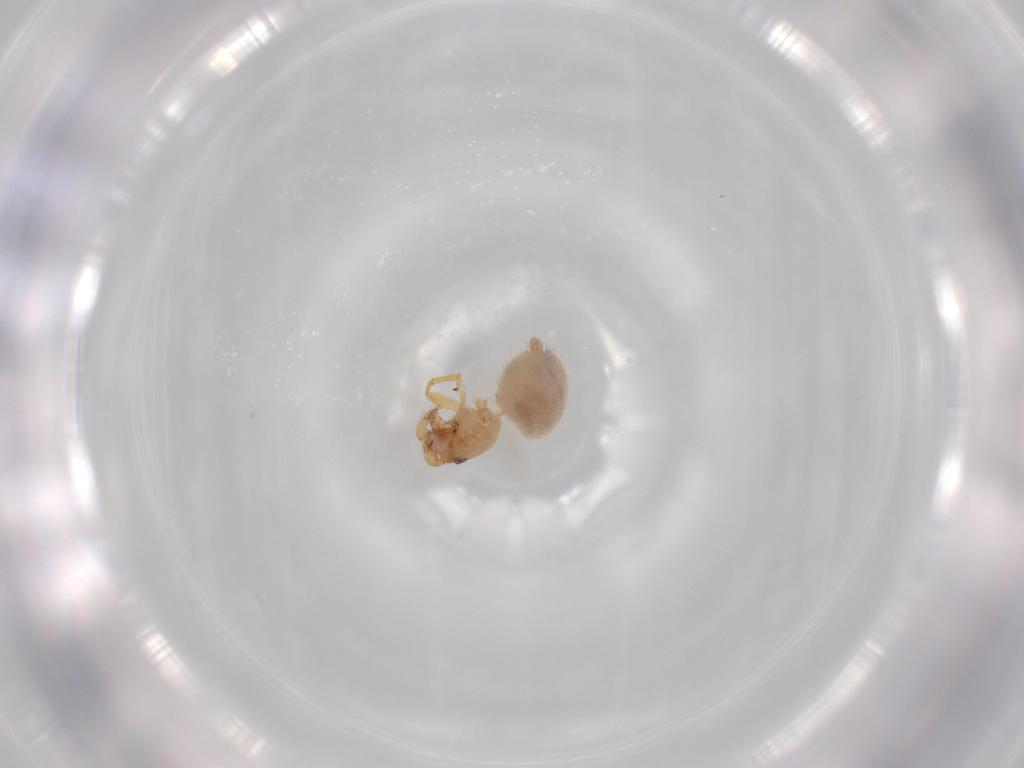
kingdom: Animalia
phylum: Arthropoda
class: Arachnida
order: Araneae
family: Oonopidae
